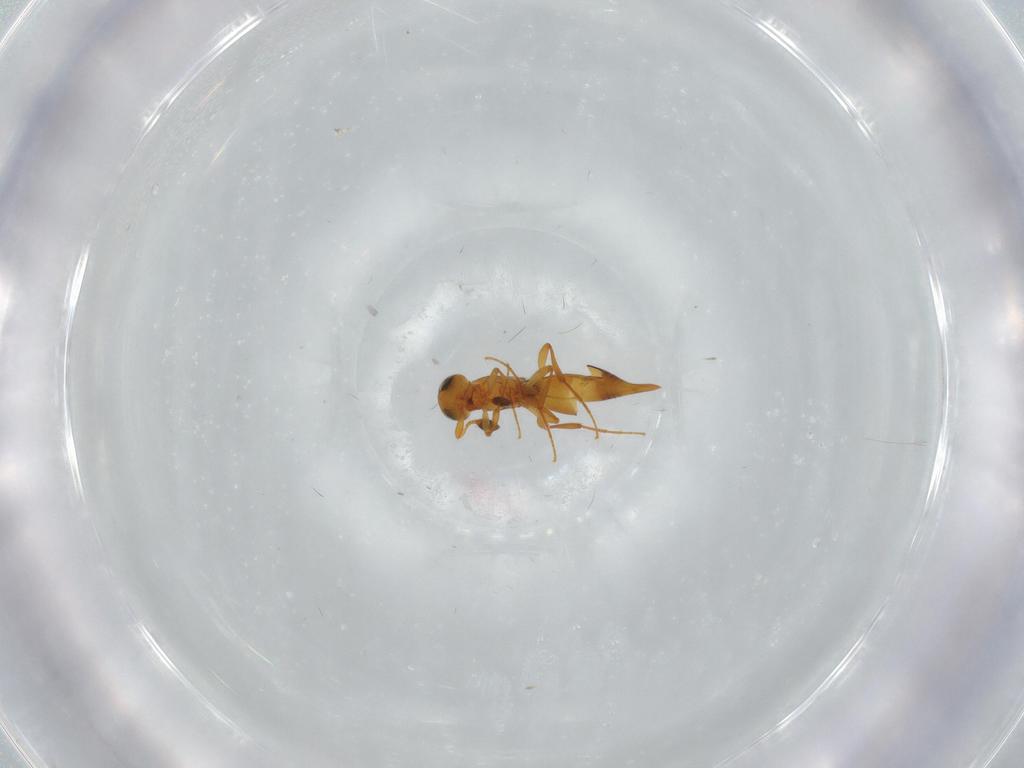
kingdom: Animalia
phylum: Arthropoda
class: Insecta
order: Hymenoptera
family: Platygastridae
